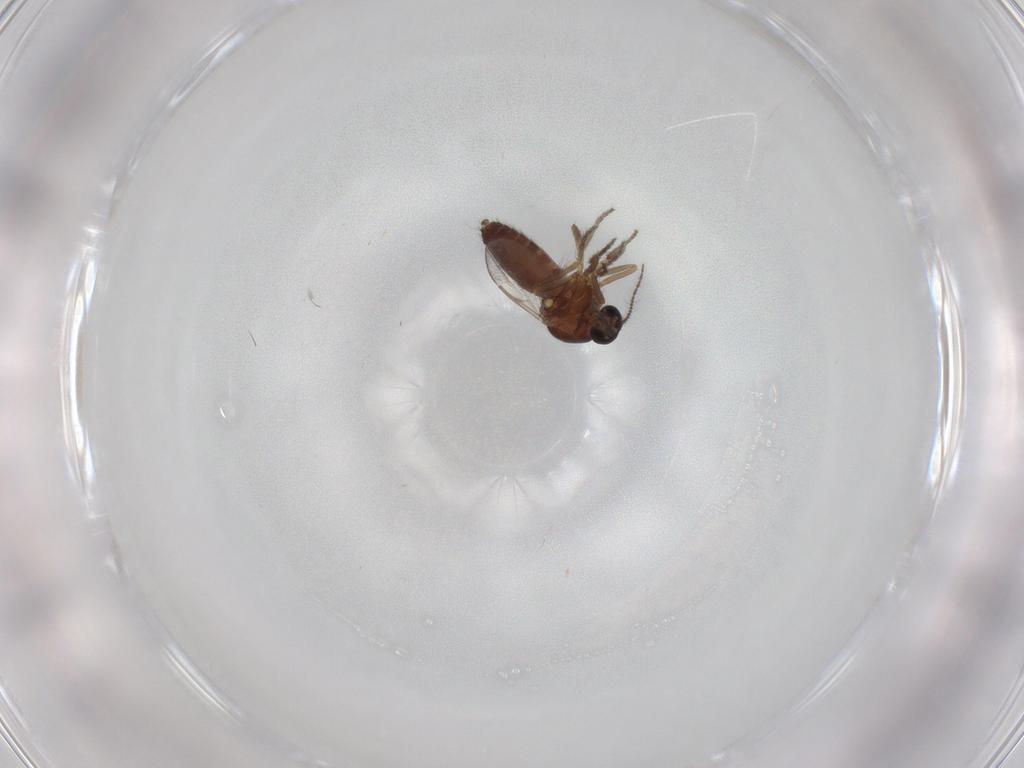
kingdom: Animalia
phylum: Arthropoda
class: Insecta
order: Diptera
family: Ceratopogonidae
